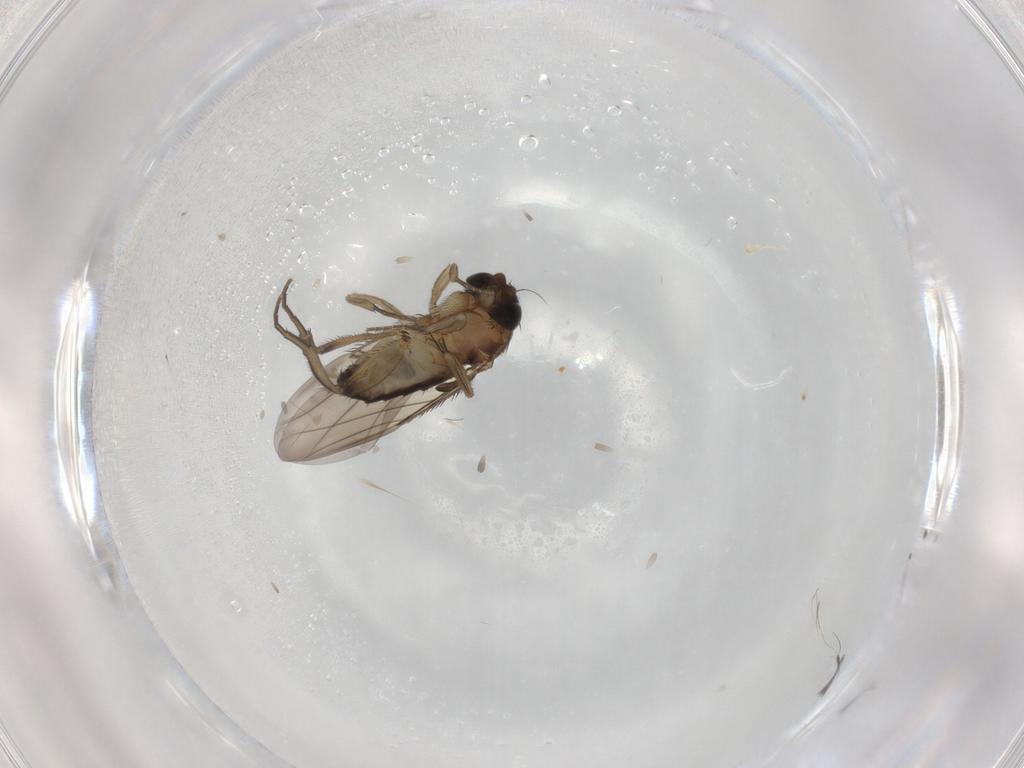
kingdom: Animalia
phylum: Arthropoda
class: Insecta
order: Diptera
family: Phoridae
